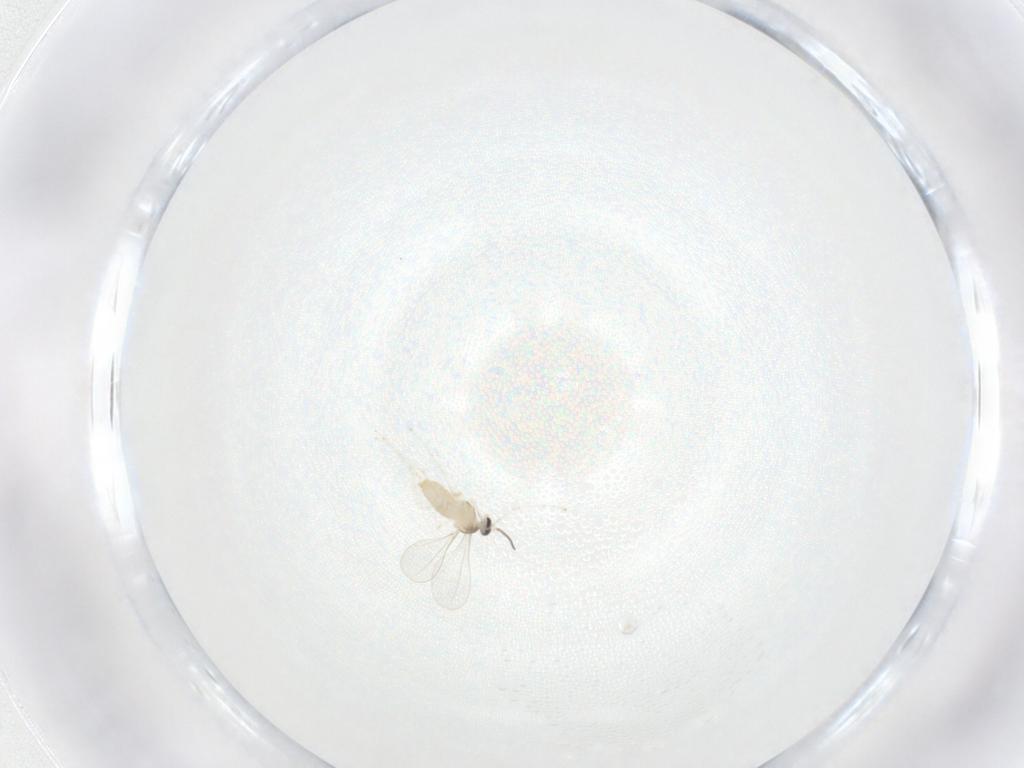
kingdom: Animalia
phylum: Arthropoda
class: Insecta
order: Diptera
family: Cecidomyiidae
